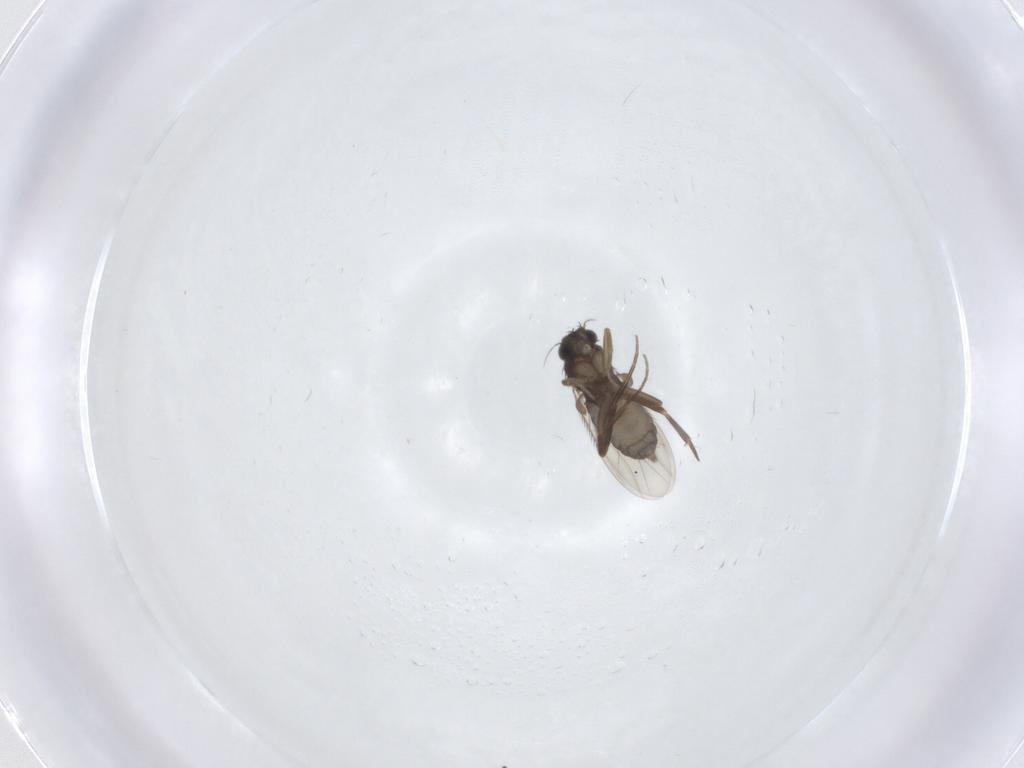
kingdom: Animalia
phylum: Arthropoda
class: Insecta
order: Diptera
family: Phoridae
